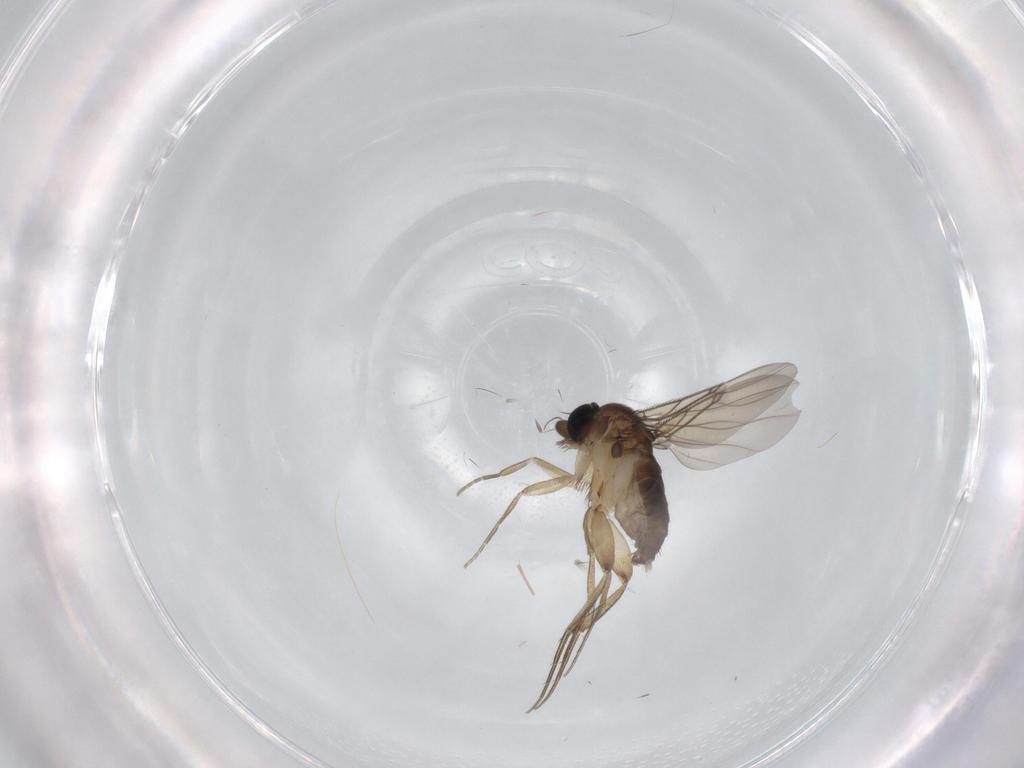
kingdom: Animalia
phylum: Arthropoda
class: Insecta
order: Diptera
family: Phoridae
